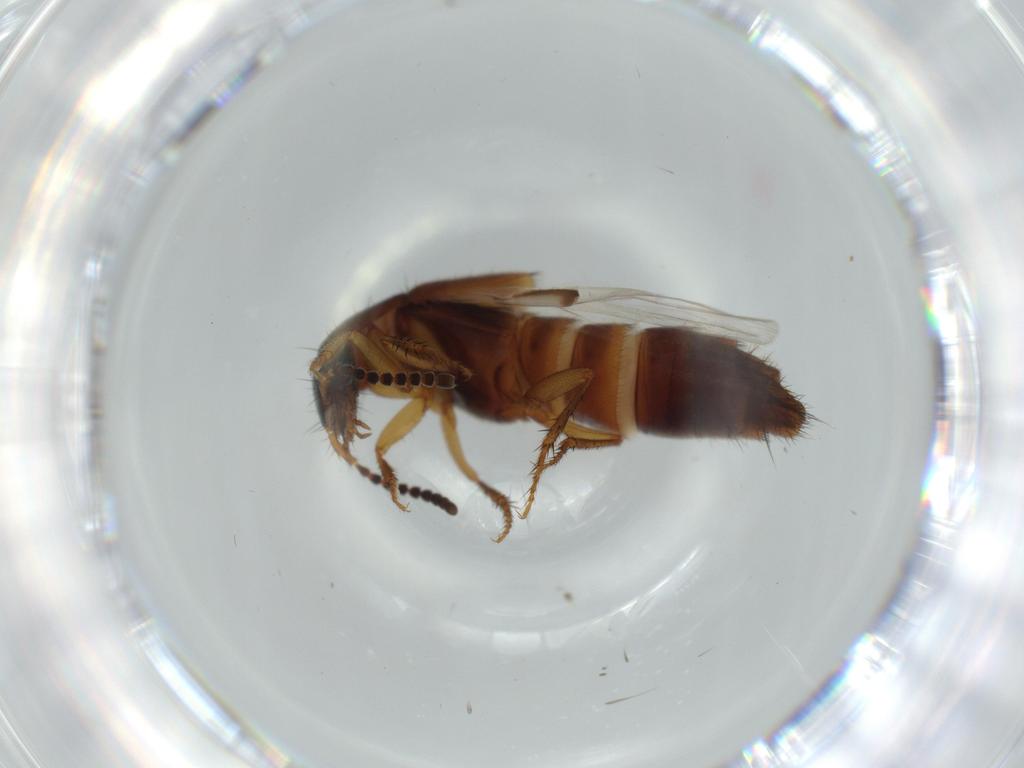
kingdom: Animalia
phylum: Arthropoda
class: Insecta
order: Coleoptera
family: Staphylinidae
